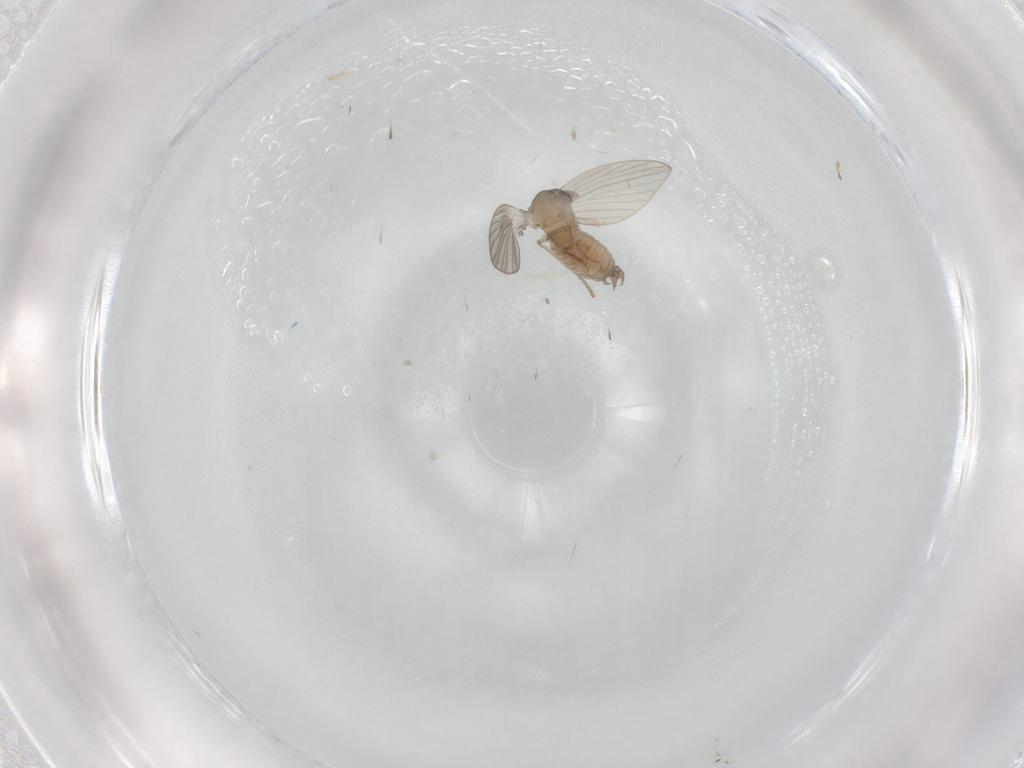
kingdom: Animalia
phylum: Arthropoda
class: Insecta
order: Diptera
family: Psychodidae
